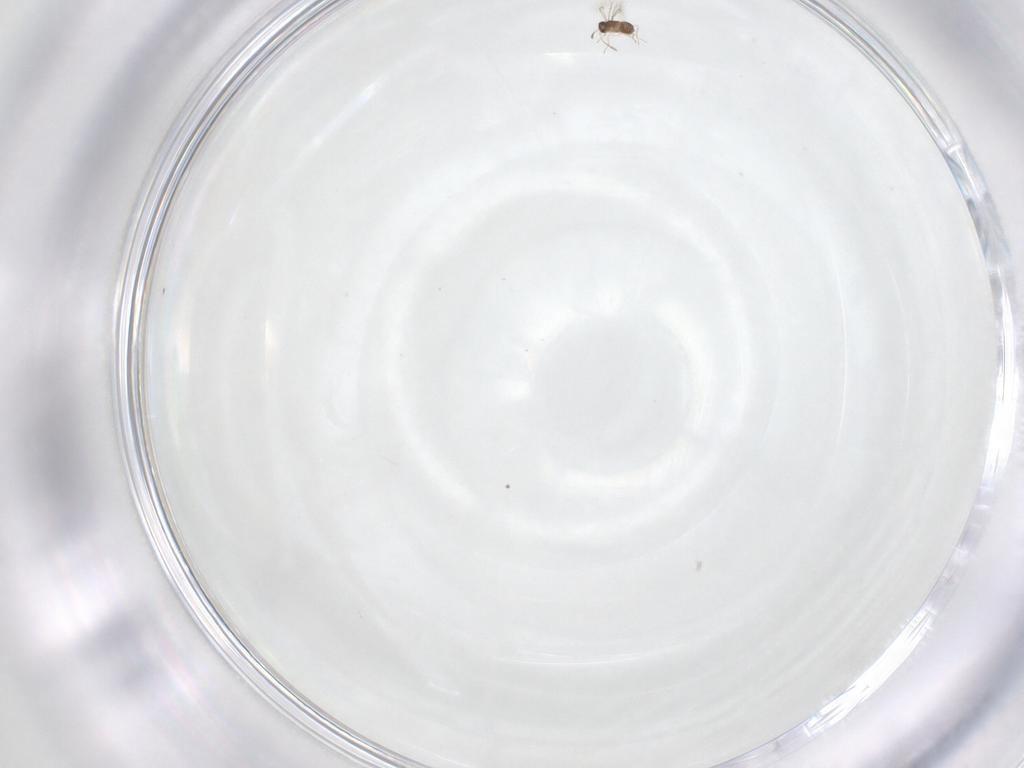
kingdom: Animalia
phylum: Arthropoda
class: Insecta
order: Hymenoptera
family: Mymaridae
